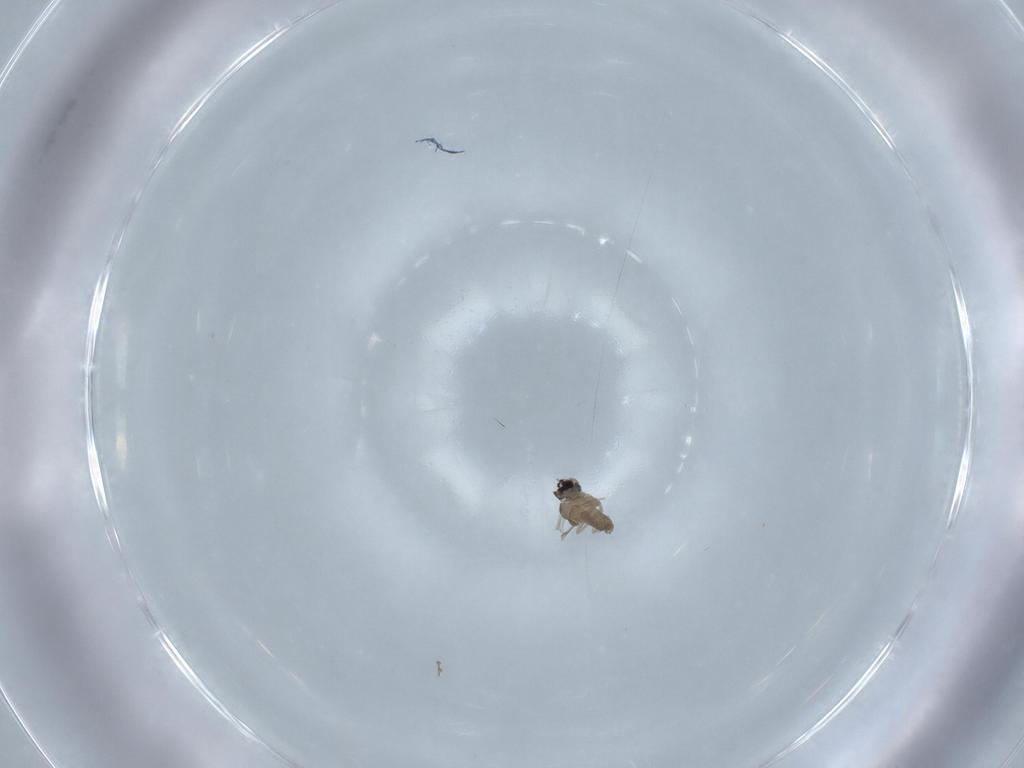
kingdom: Animalia
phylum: Arthropoda
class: Insecta
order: Diptera
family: Cecidomyiidae
